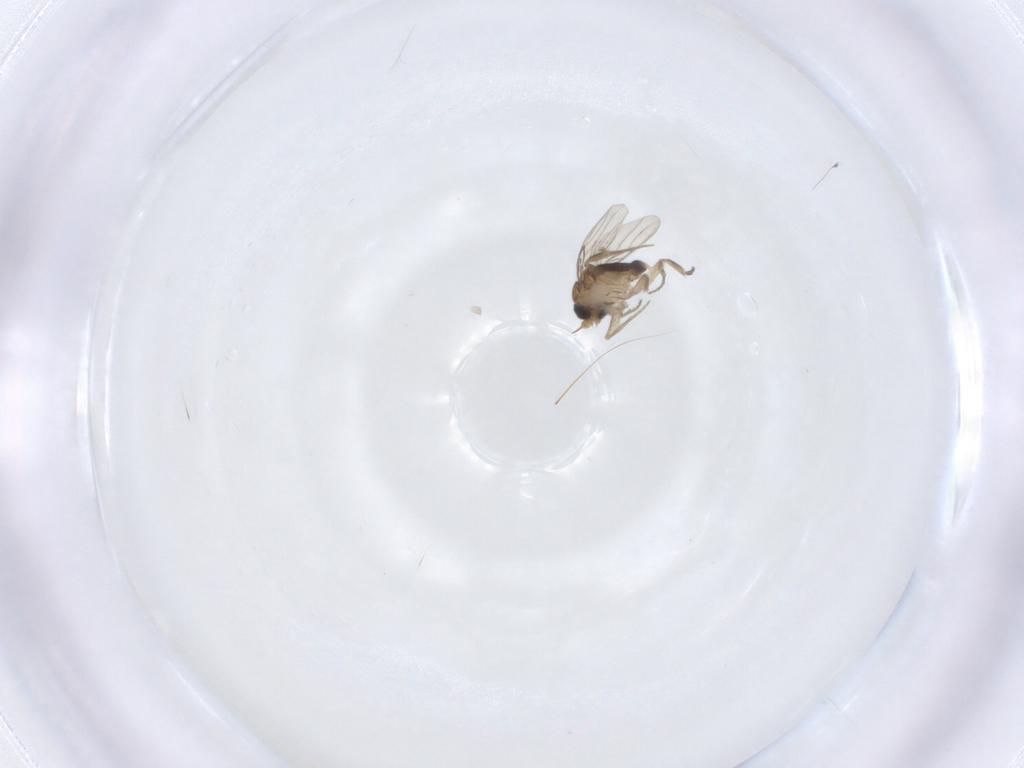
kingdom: Animalia
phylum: Arthropoda
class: Insecta
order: Diptera
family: Phoridae
